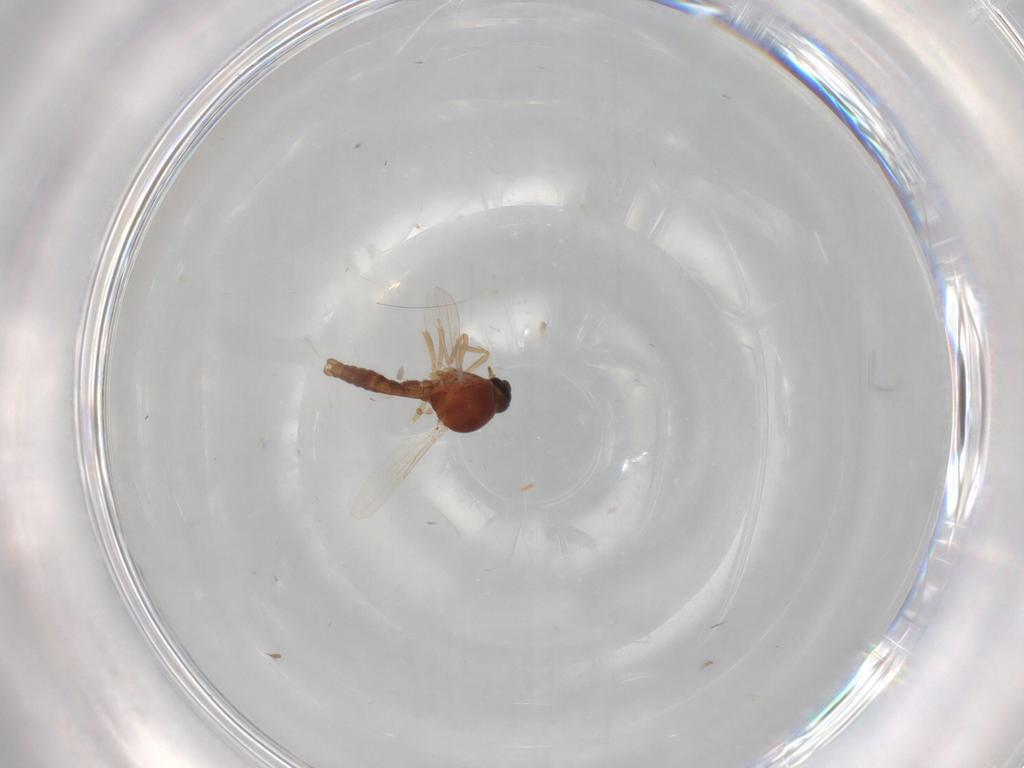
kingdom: Animalia
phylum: Arthropoda
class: Insecta
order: Diptera
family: Ceratopogonidae
